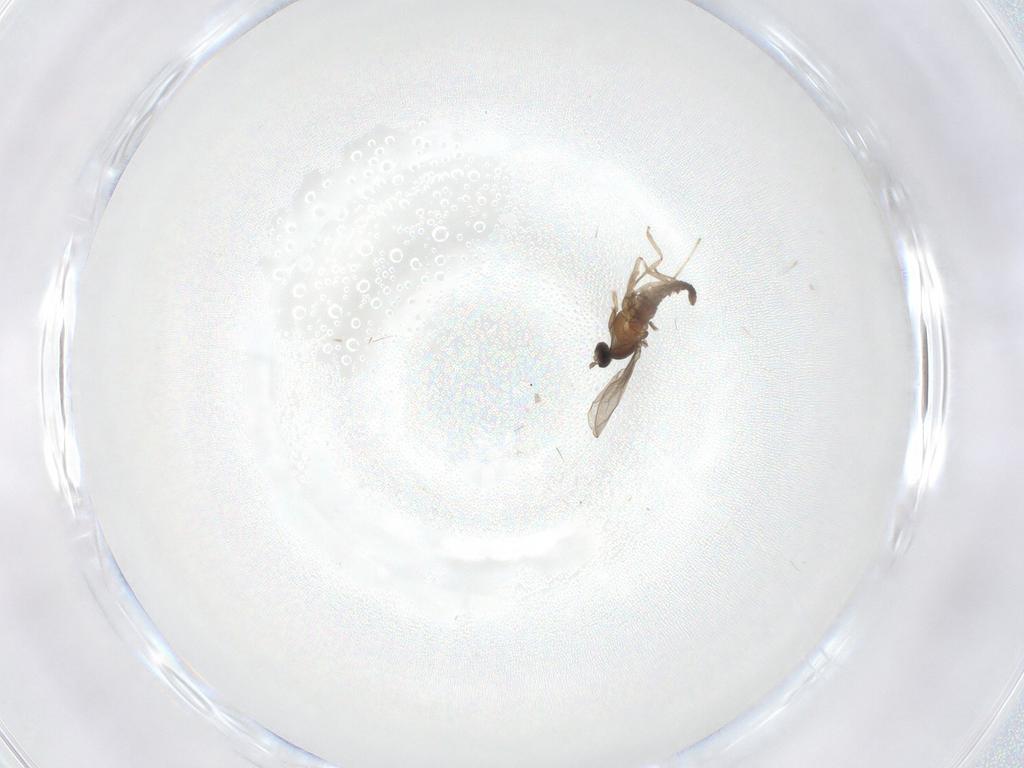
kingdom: Animalia
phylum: Arthropoda
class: Insecta
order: Diptera
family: Cecidomyiidae
